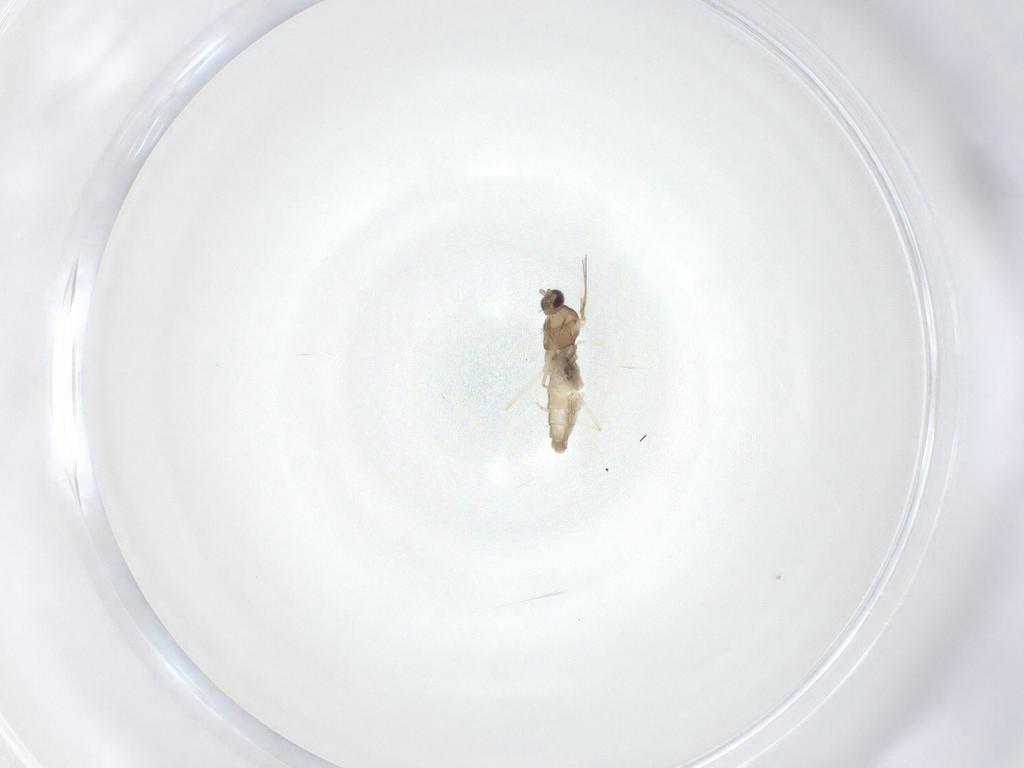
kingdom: Animalia
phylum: Arthropoda
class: Insecta
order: Diptera
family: Cecidomyiidae
